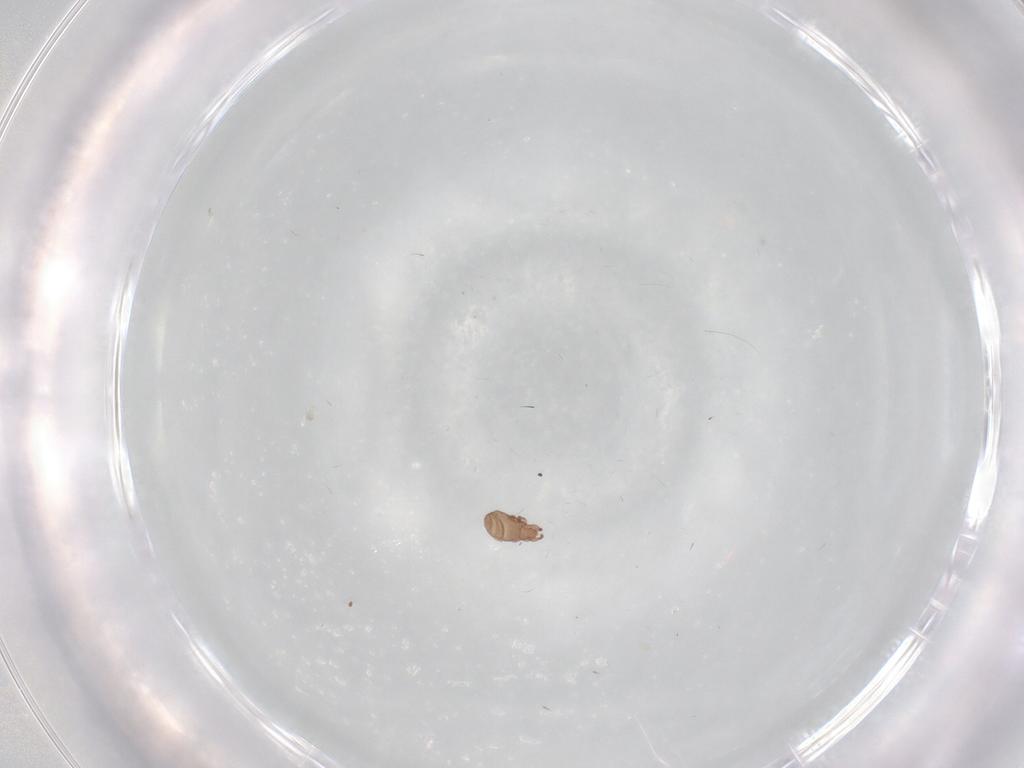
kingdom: Animalia
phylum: Arthropoda
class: Arachnida
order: Sarcoptiformes
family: Eremaeidae
